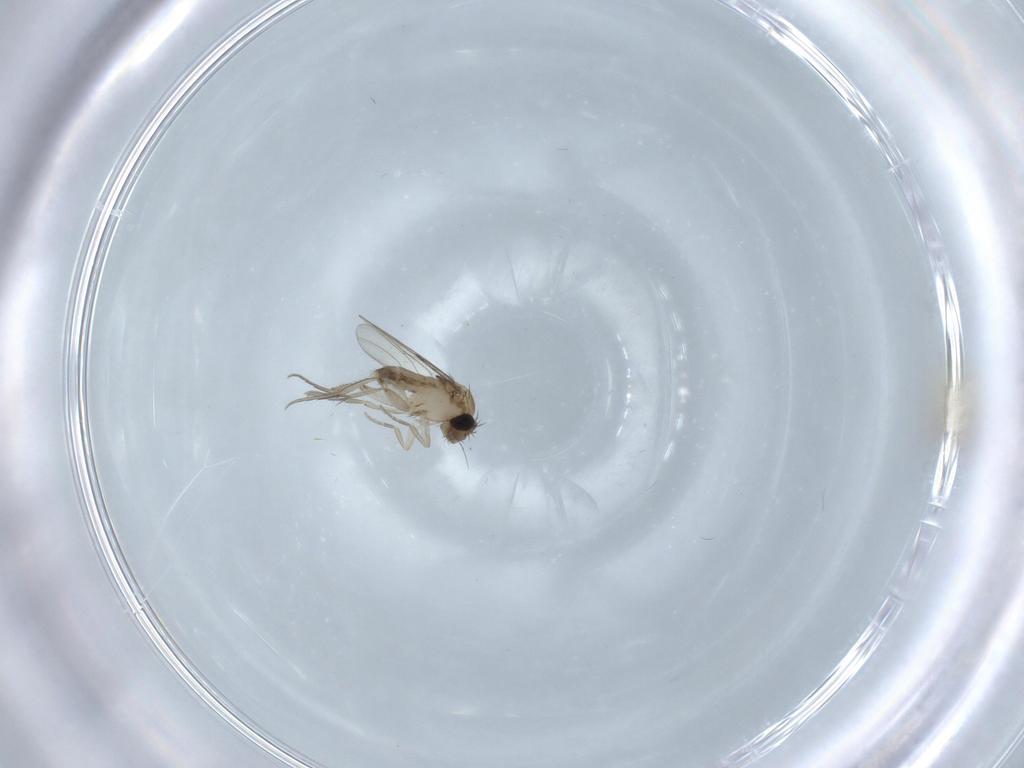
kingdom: Animalia
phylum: Arthropoda
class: Insecta
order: Diptera
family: Phoridae
